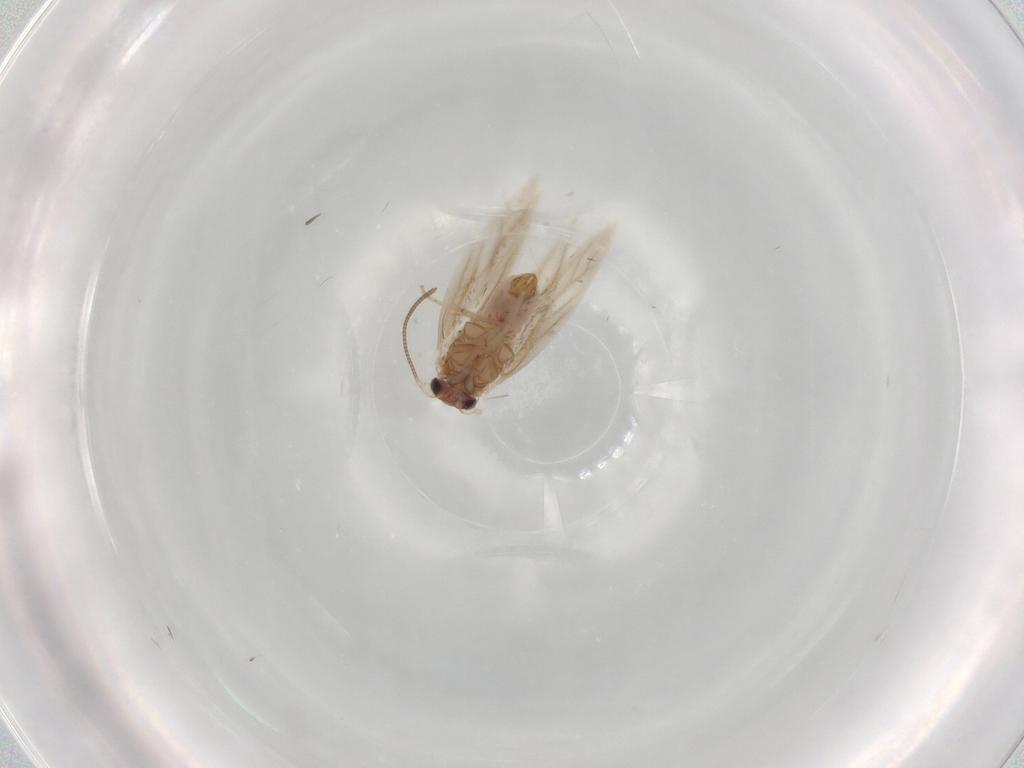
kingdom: Animalia
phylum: Arthropoda
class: Insecta
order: Lepidoptera
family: Nepticulidae
